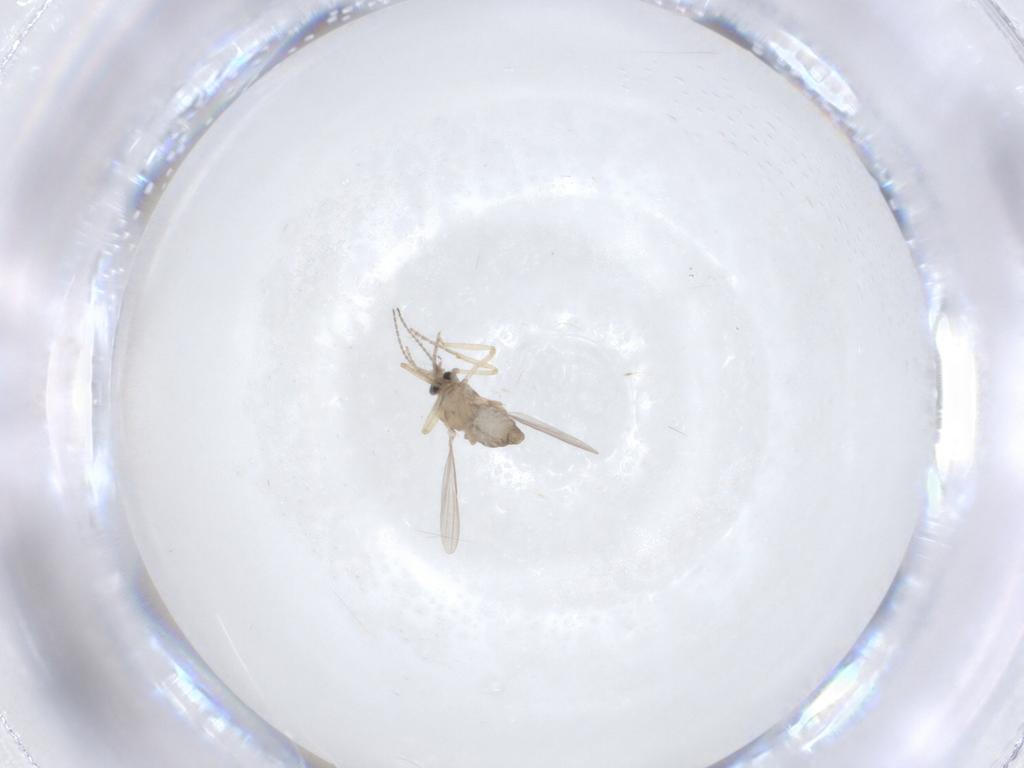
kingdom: Animalia
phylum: Arthropoda
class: Insecta
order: Diptera
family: Ceratopogonidae
